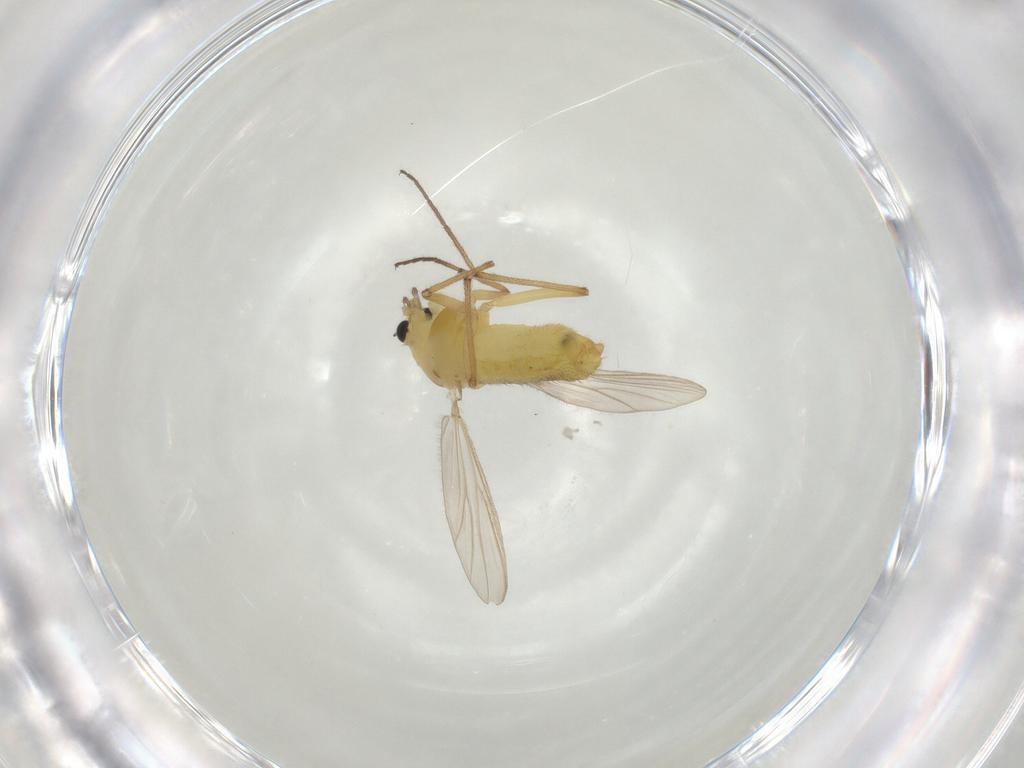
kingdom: Animalia
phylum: Arthropoda
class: Insecta
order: Diptera
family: Chironomidae
